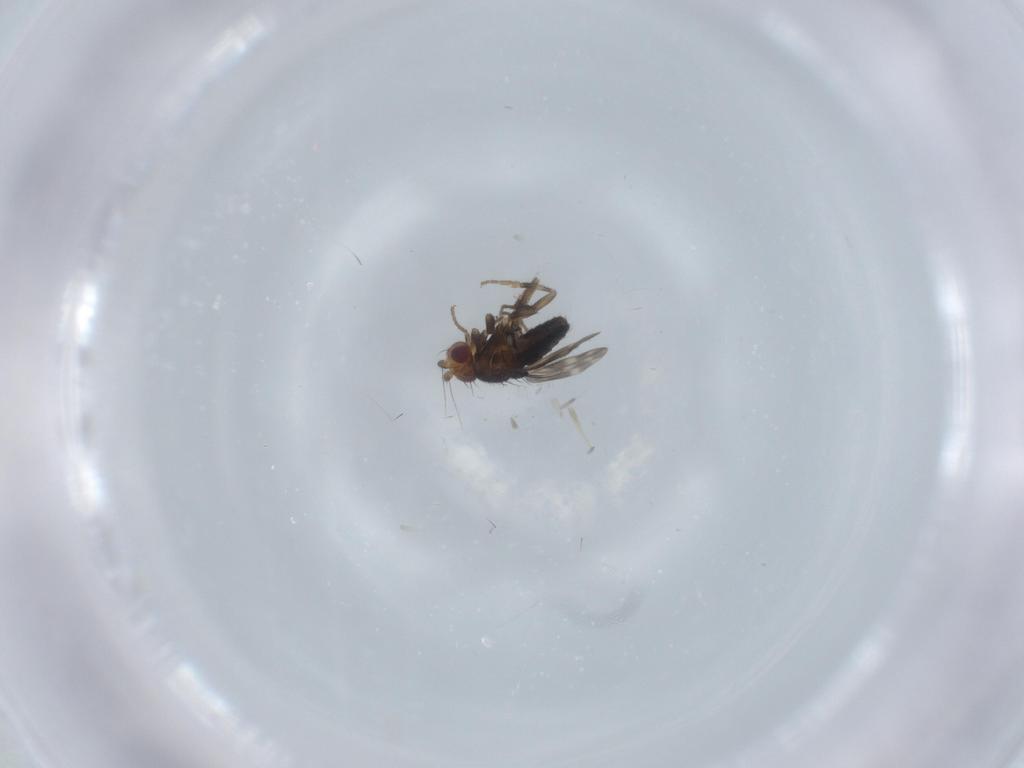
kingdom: Animalia
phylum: Arthropoda
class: Insecta
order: Diptera
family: Sphaeroceridae
